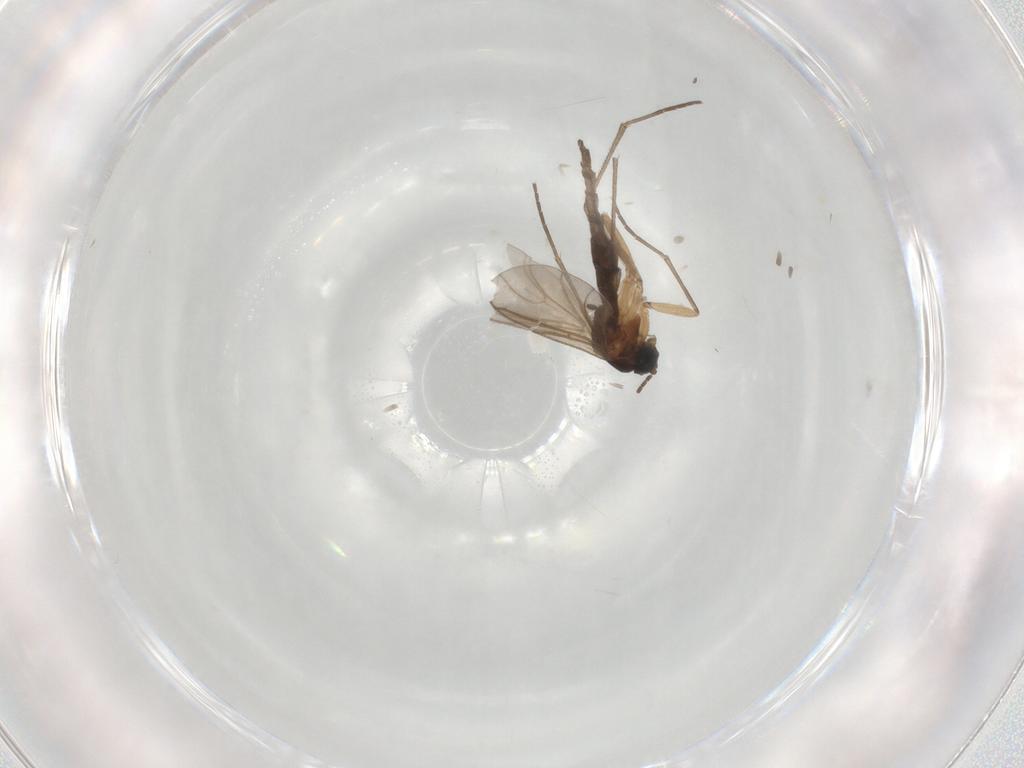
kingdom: Animalia
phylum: Arthropoda
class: Insecta
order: Diptera
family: Sciaridae
